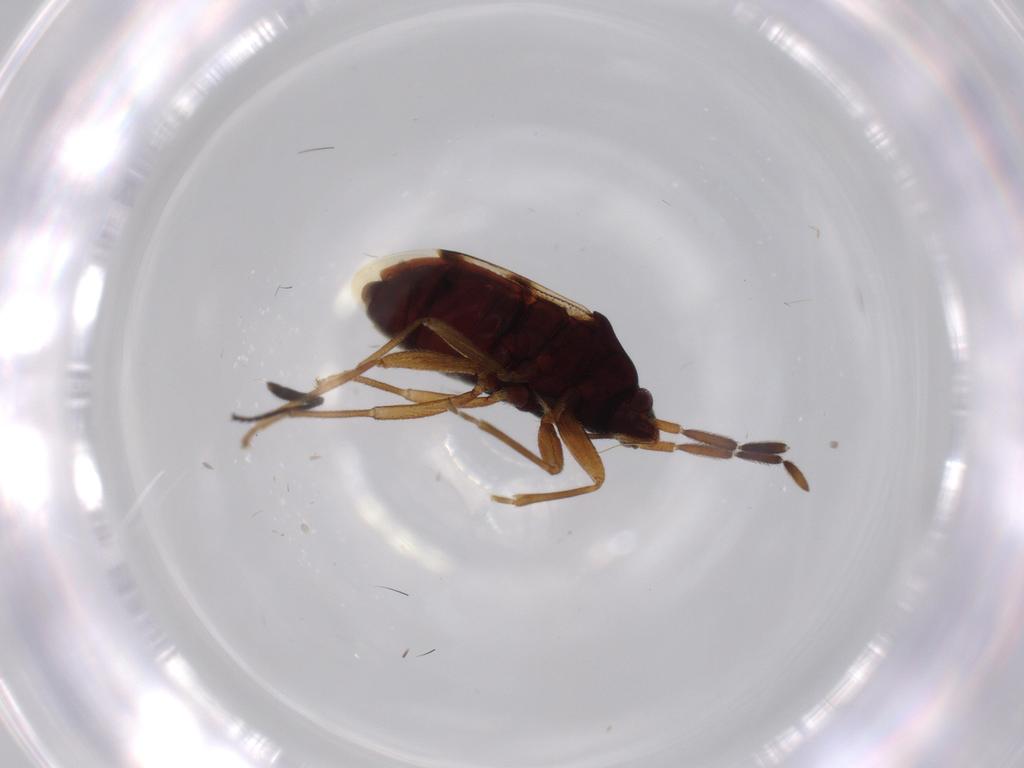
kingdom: Animalia
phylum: Arthropoda
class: Insecta
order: Hemiptera
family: Rhyparochromidae
